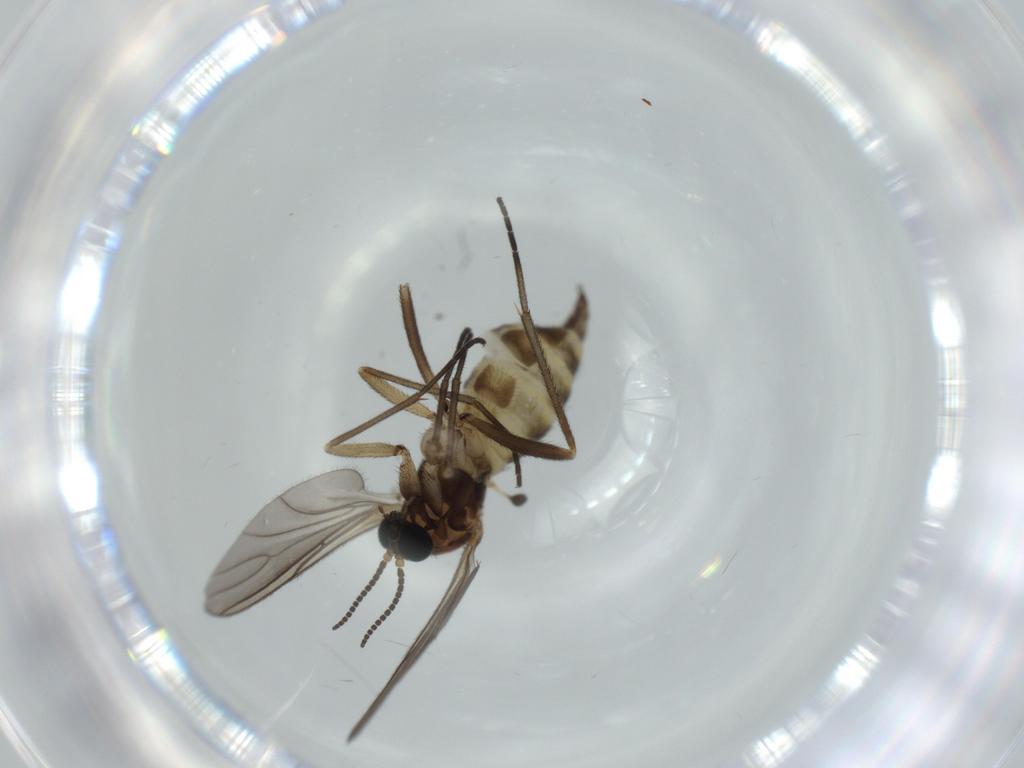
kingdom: Animalia
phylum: Arthropoda
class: Insecta
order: Diptera
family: Sciaridae
